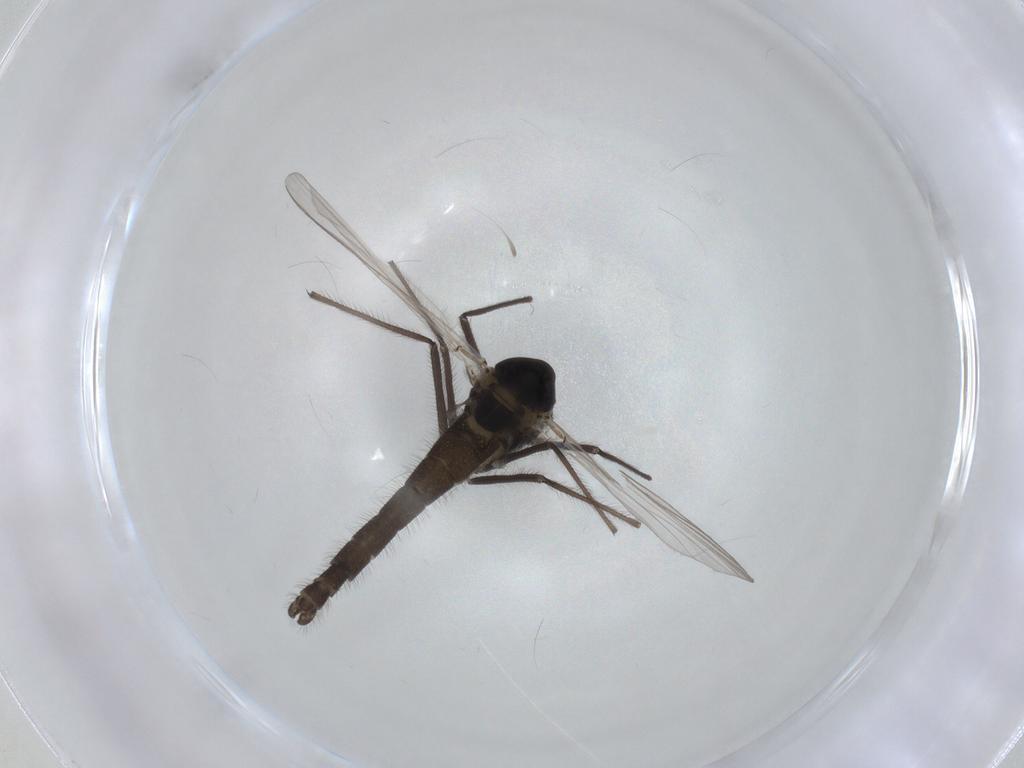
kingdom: Animalia
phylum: Arthropoda
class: Insecta
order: Diptera
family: Chironomidae
